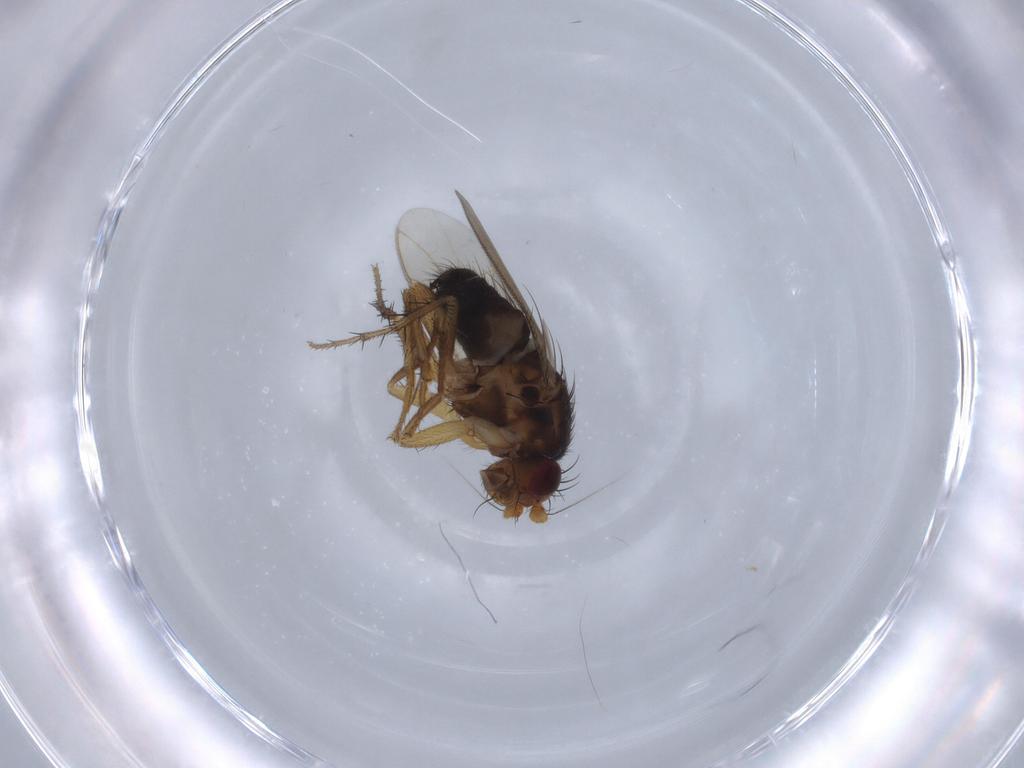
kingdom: Animalia
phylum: Arthropoda
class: Insecta
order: Diptera
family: Sphaeroceridae
